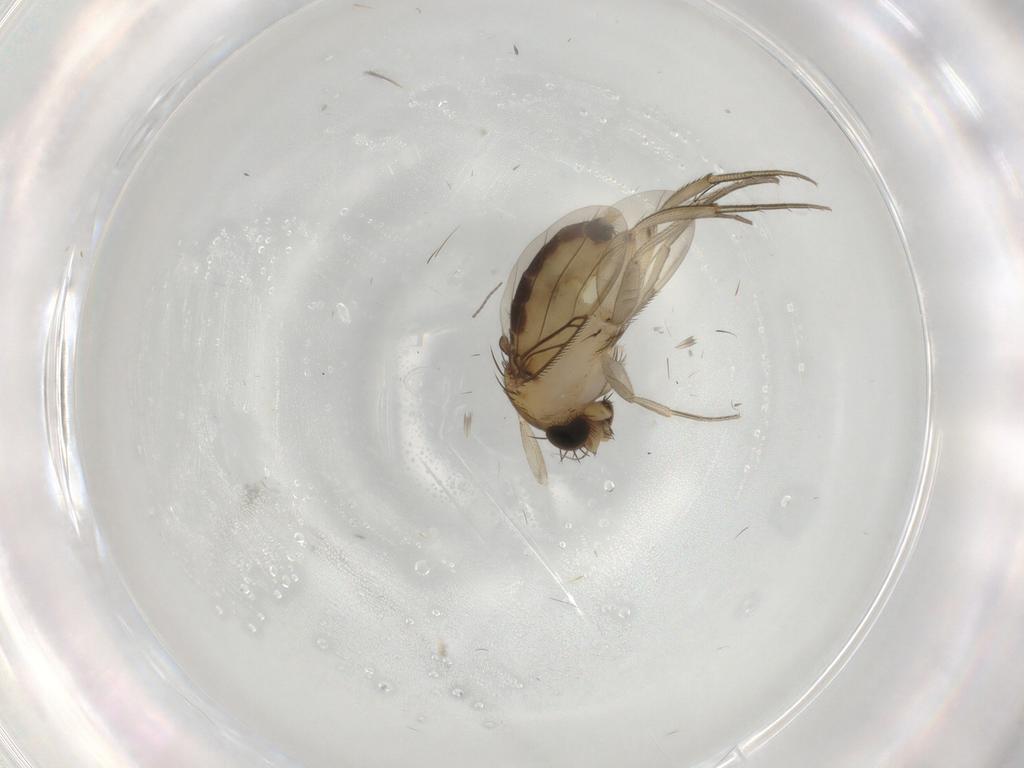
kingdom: Animalia
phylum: Arthropoda
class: Insecta
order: Diptera
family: Phoridae
